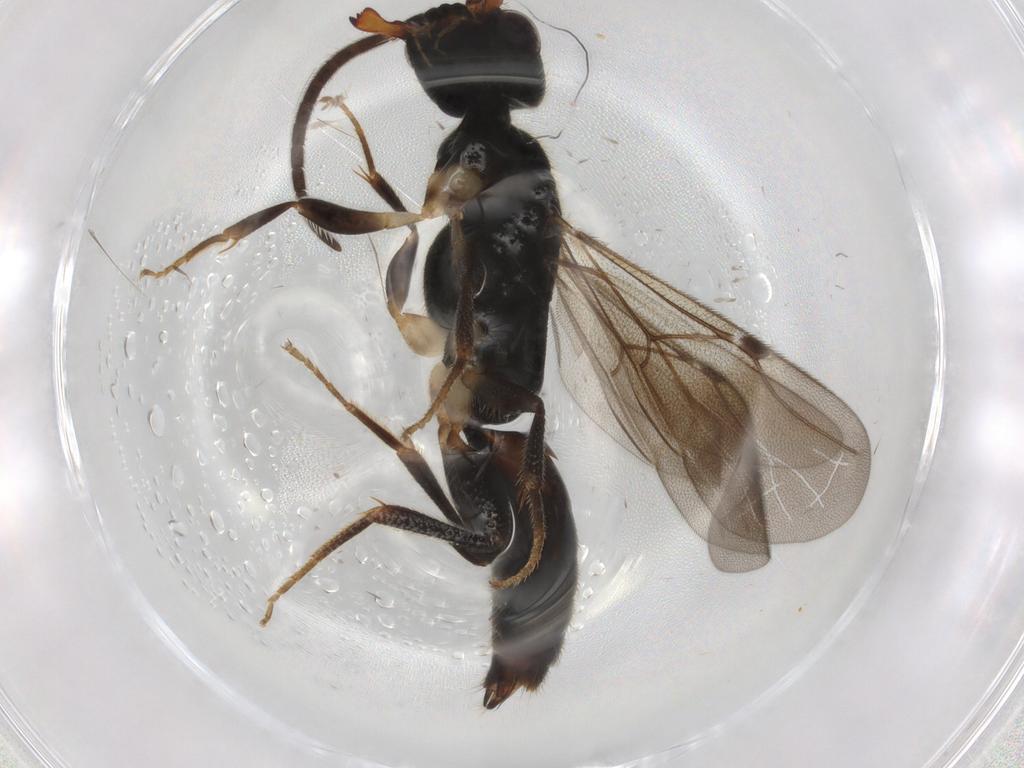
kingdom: Animalia
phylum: Arthropoda
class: Insecta
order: Hymenoptera
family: Bethylidae
